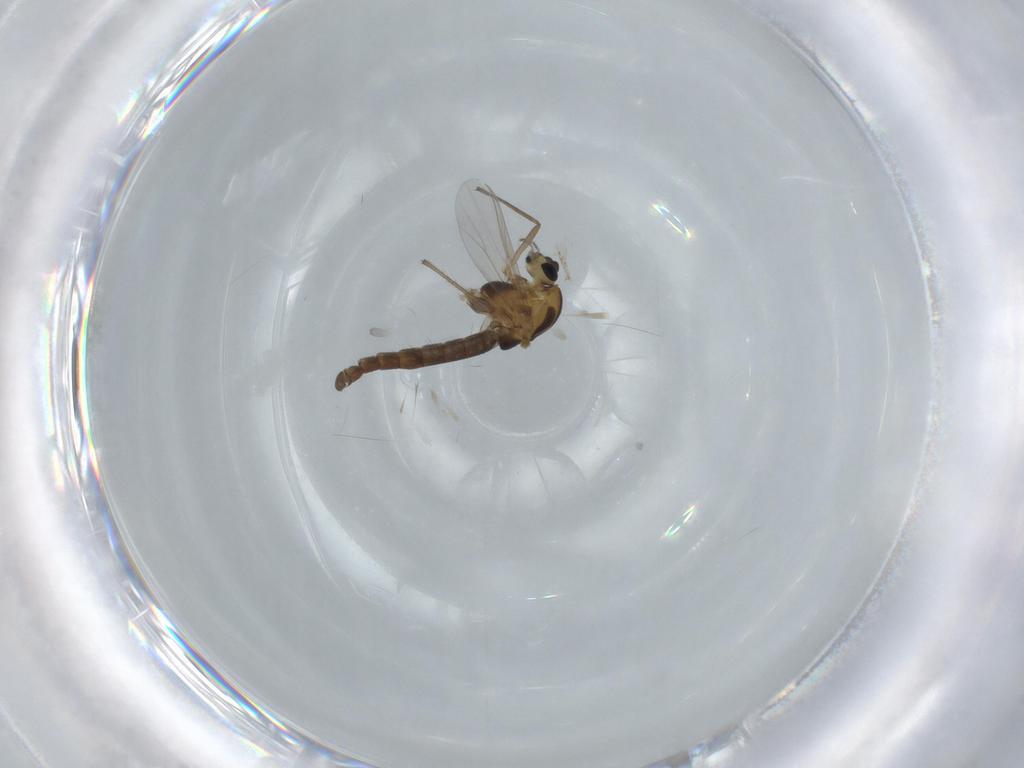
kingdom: Animalia
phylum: Arthropoda
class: Insecta
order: Diptera
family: Chironomidae
